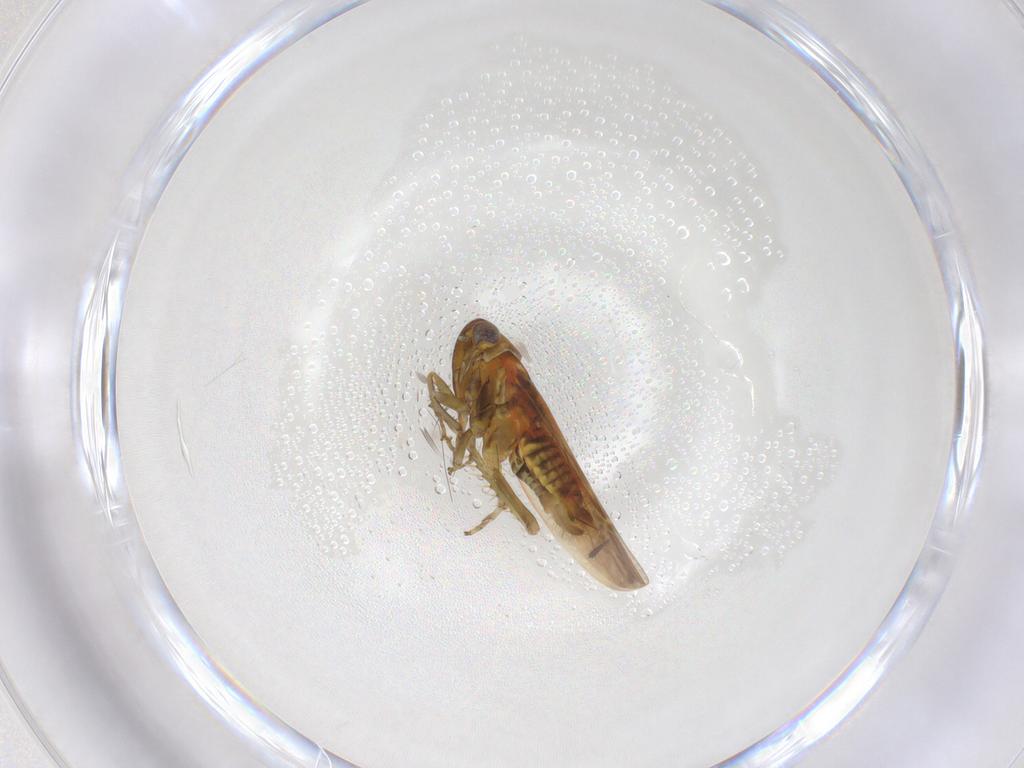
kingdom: Animalia
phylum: Arthropoda
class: Insecta
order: Hemiptera
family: Cicadellidae
